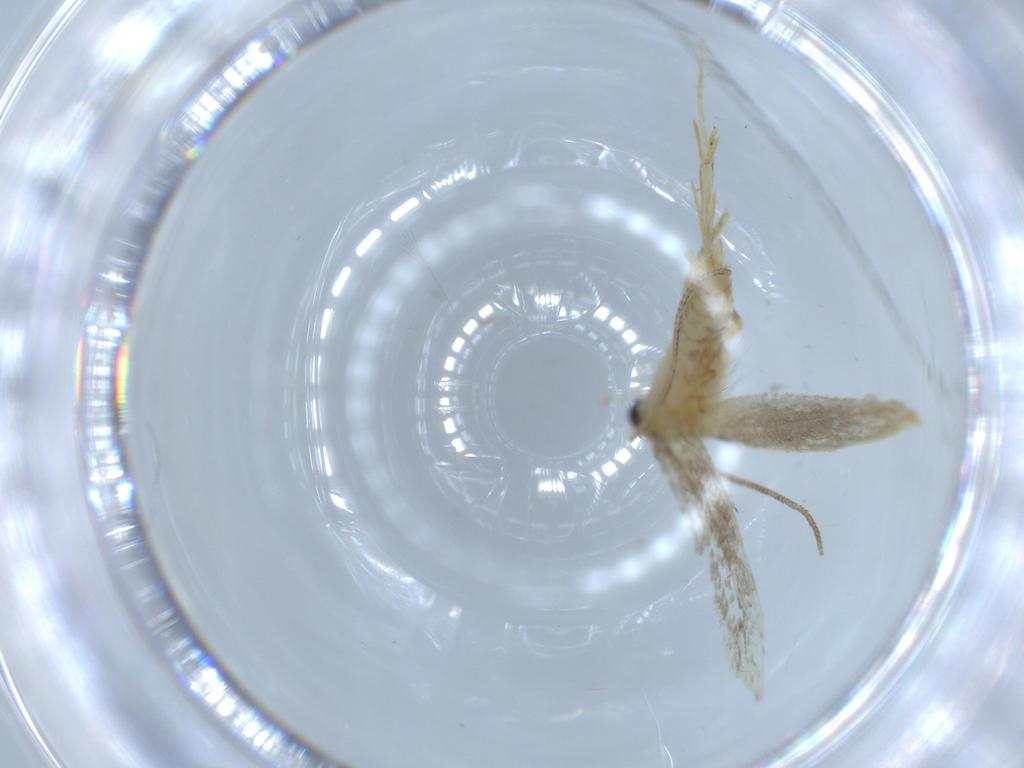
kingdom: Animalia
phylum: Arthropoda
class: Insecta
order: Lepidoptera
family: Tineidae
